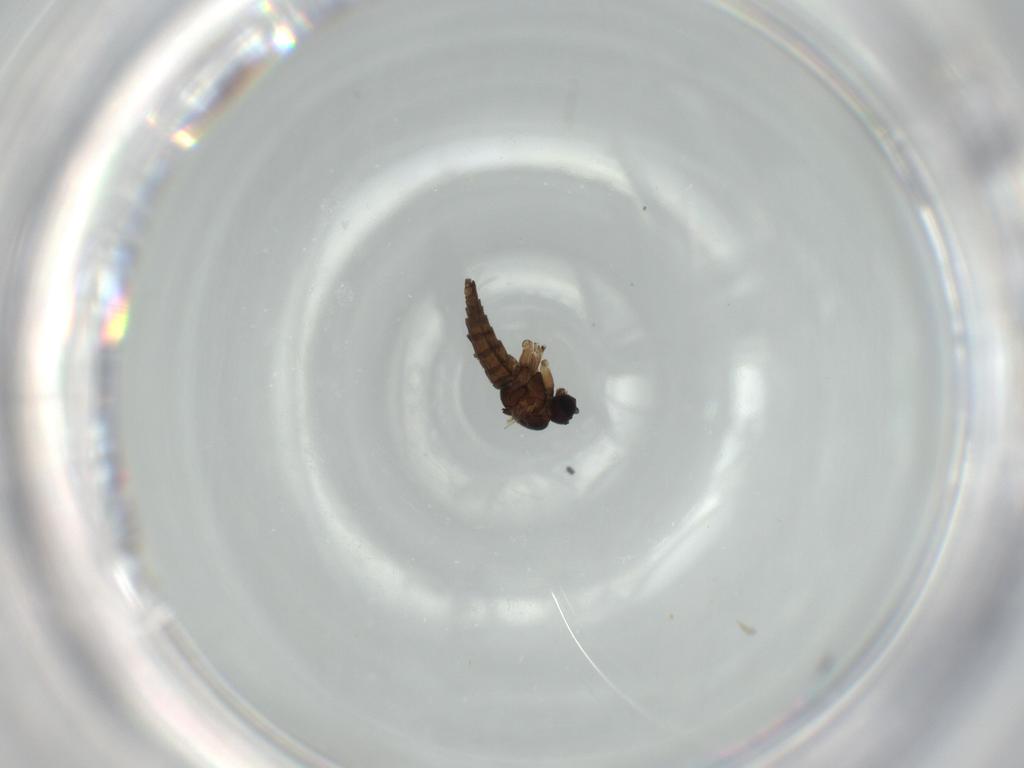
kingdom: Animalia
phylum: Arthropoda
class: Insecta
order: Diptera
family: Sciaridae
